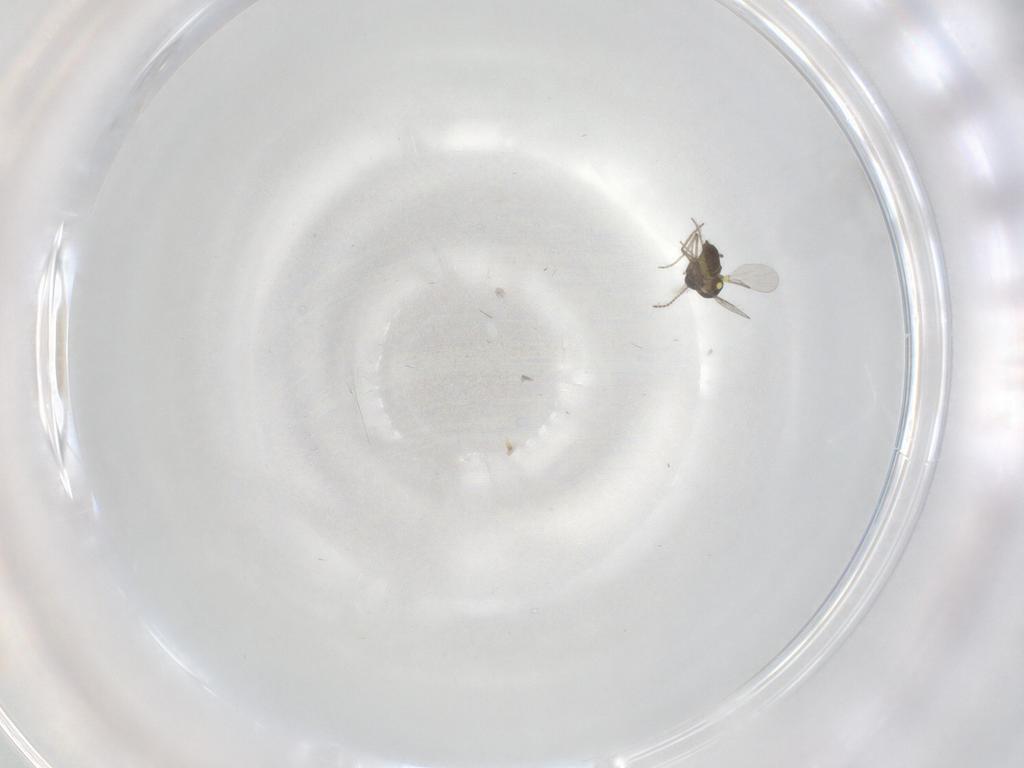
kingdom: Animalia
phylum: Arthropoda
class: Insecta
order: Diptera
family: Ceratopogonidae
